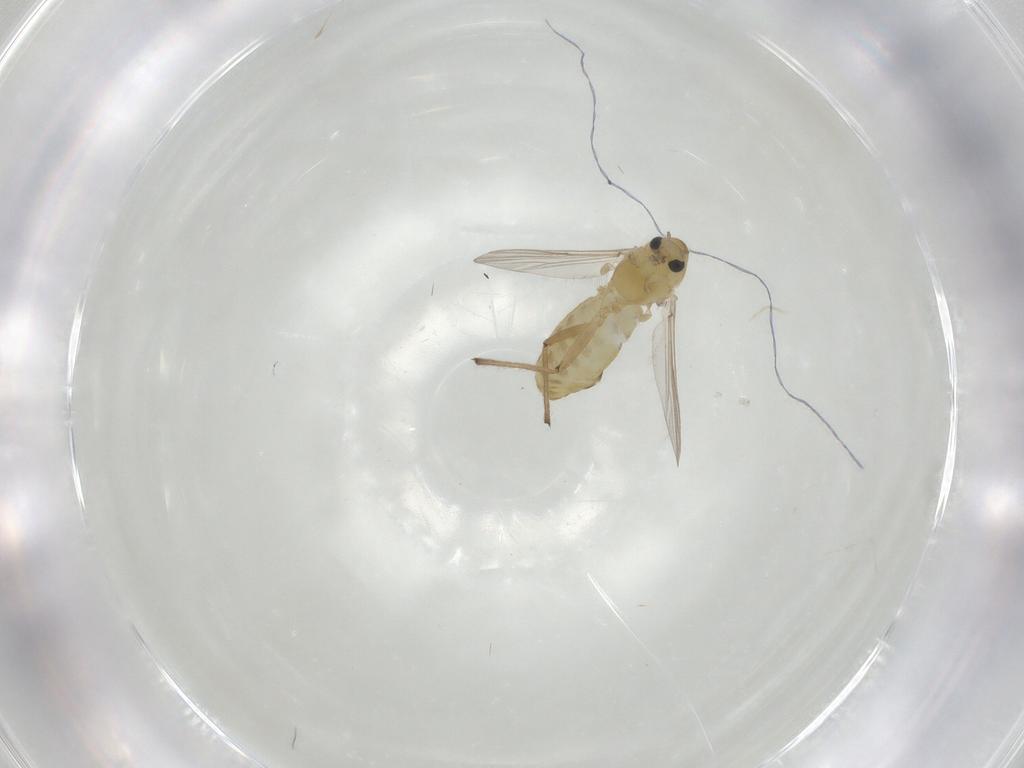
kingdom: Animalia
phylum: Arthropoda
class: Insecta
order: Diptera
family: Chironomidae
